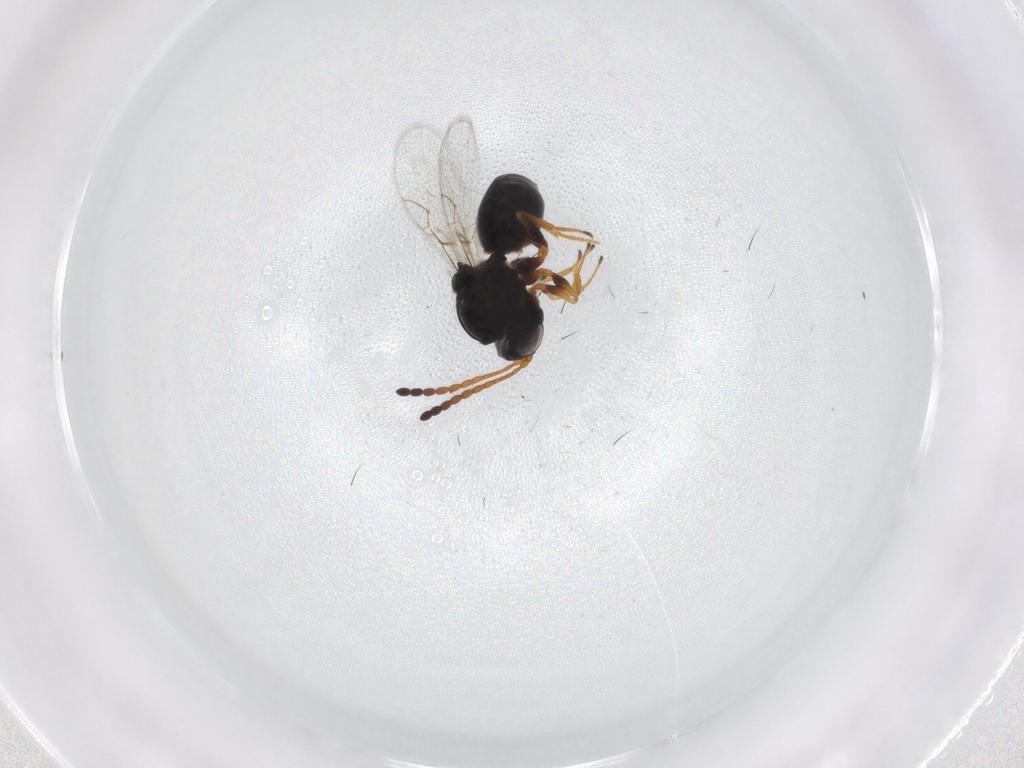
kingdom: Animalia
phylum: Arthropoda
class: Insecta
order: Hymenoptera
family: Figitidae
